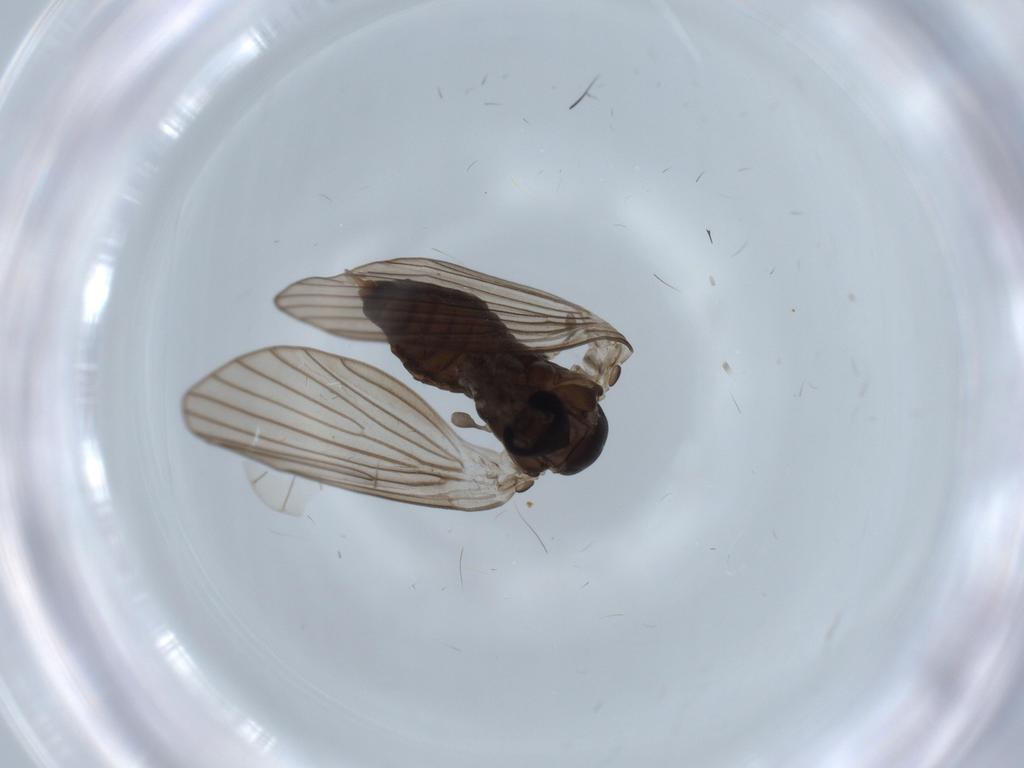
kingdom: Animalia
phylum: Arthropoda
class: Insecta
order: Diptera
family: Psychodidae
